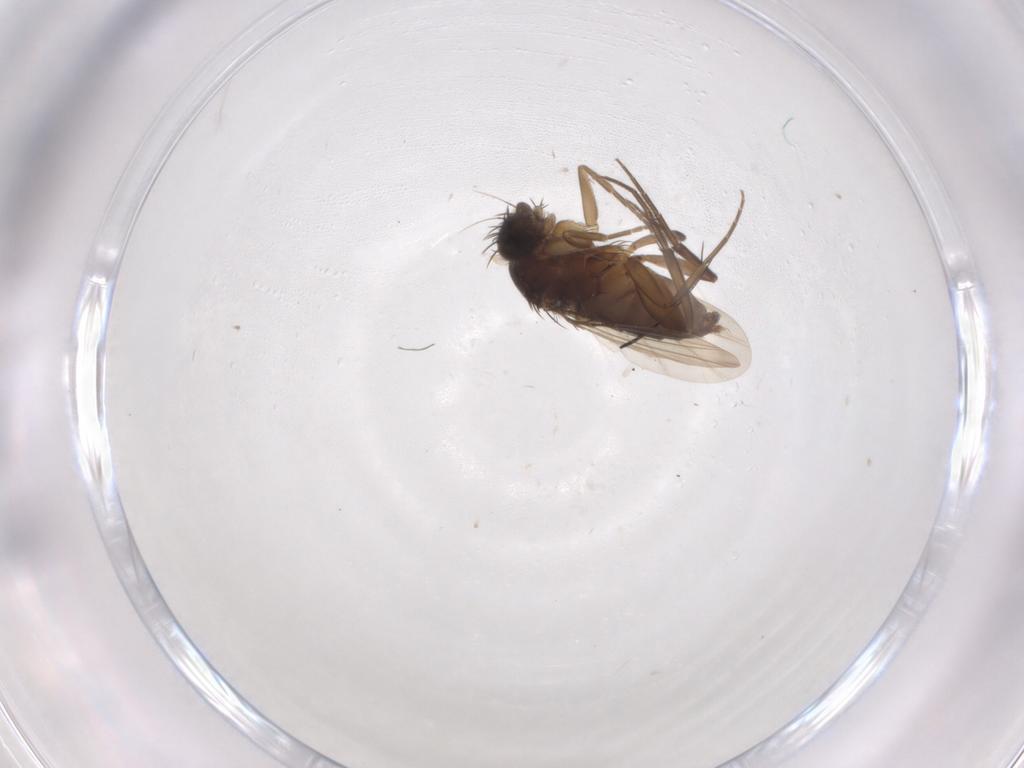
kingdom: Animalia
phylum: Arthropoda
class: Insecta
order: Diptera
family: Phoridae
